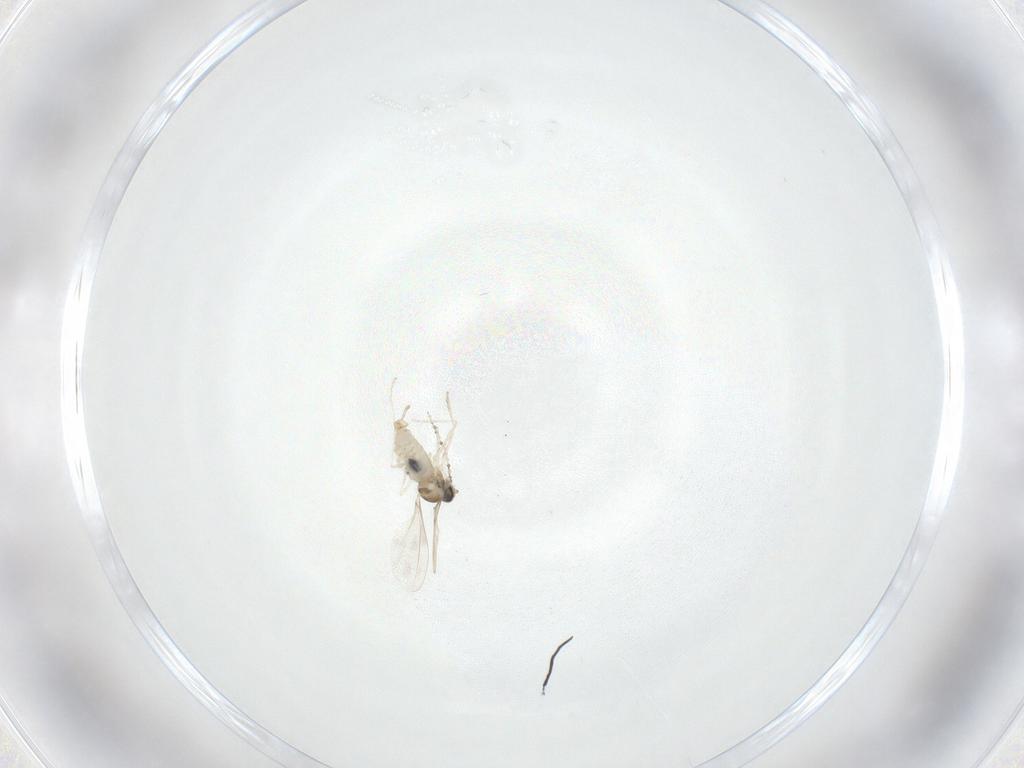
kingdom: Animalia
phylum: Arthropoda
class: Insecta
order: Diptera
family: Cecidomyiidae
